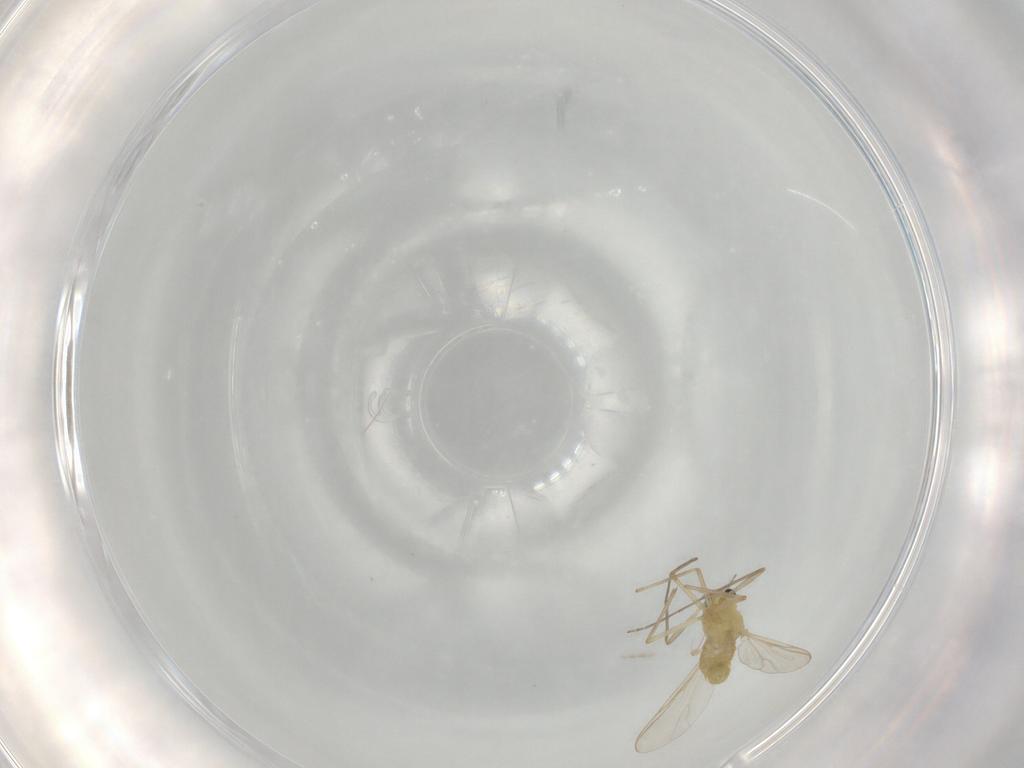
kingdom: Animalia
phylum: Arthropoda
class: Insecta
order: Diptera
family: Chironomidae
